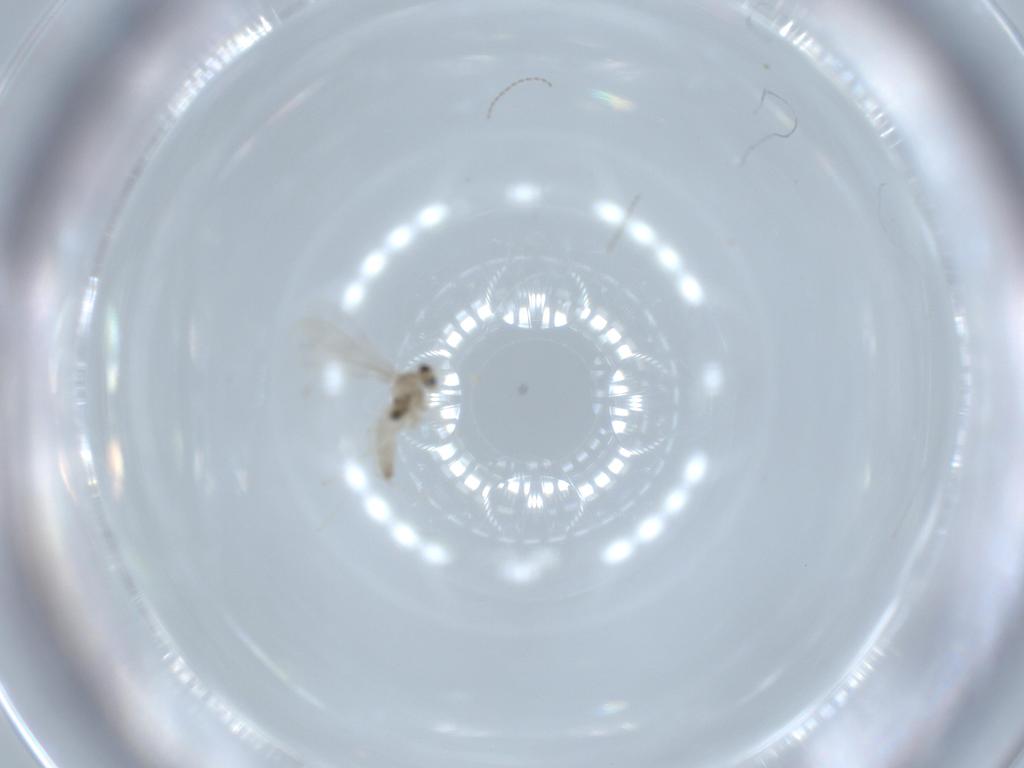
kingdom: Animalia
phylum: Arthropoda
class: Insecta
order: Diptera
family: Cecidomyiidae
